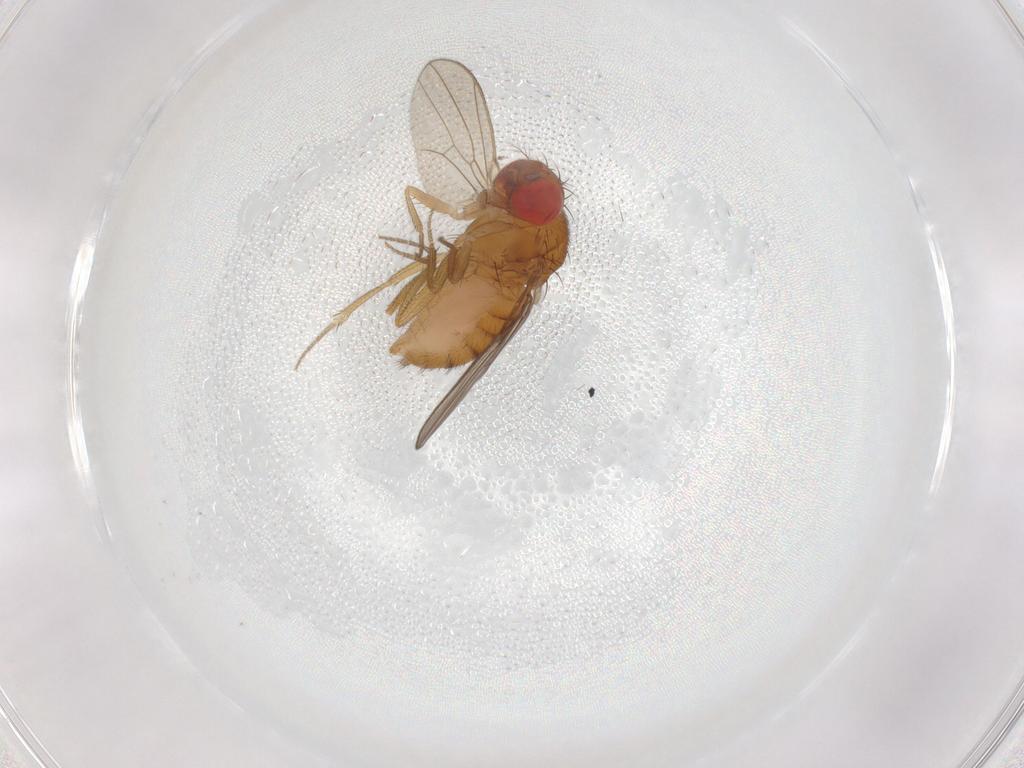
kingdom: Animalia
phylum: Arthropoda
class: Insecta
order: Diptera
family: Drosophilidae
